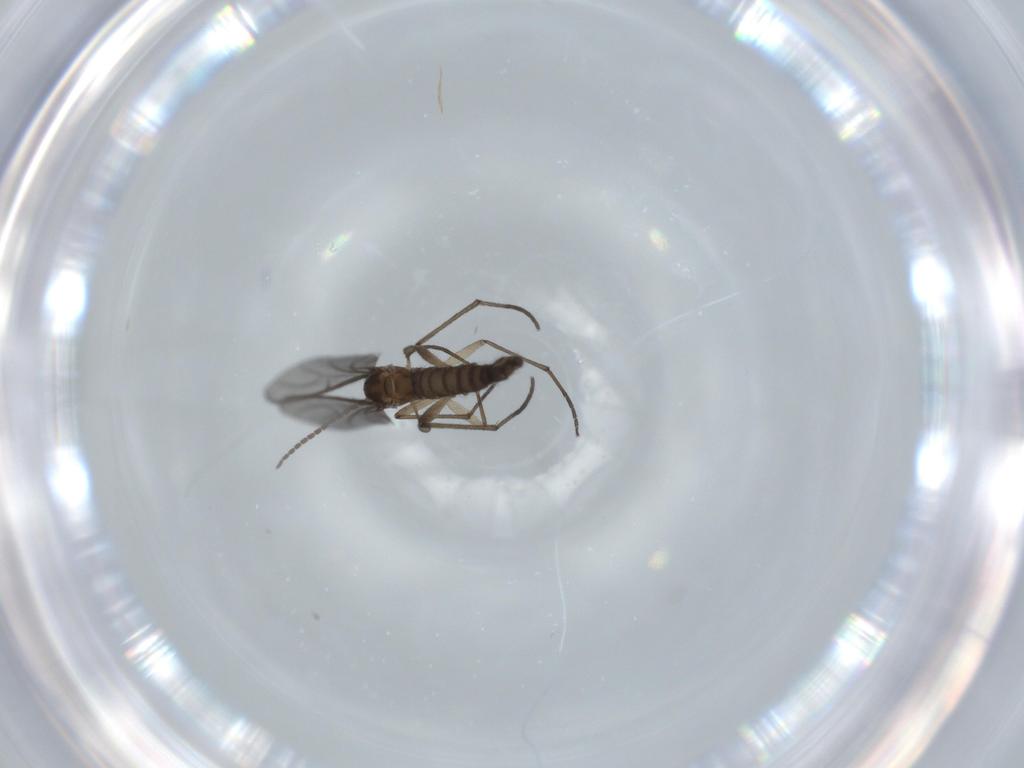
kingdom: Animalia
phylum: Arthropoda
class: Insecta
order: Diptera
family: Sciaridae
